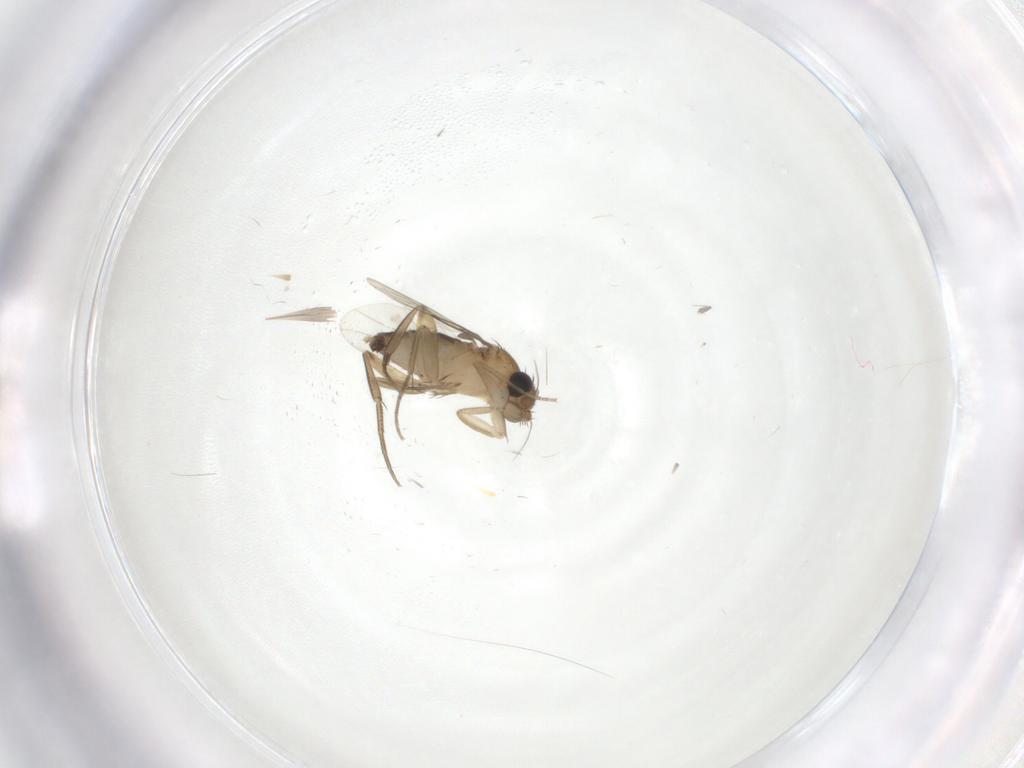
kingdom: Animalia
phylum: Arthropoda
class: Insecta
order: Diptera
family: Phoridae
